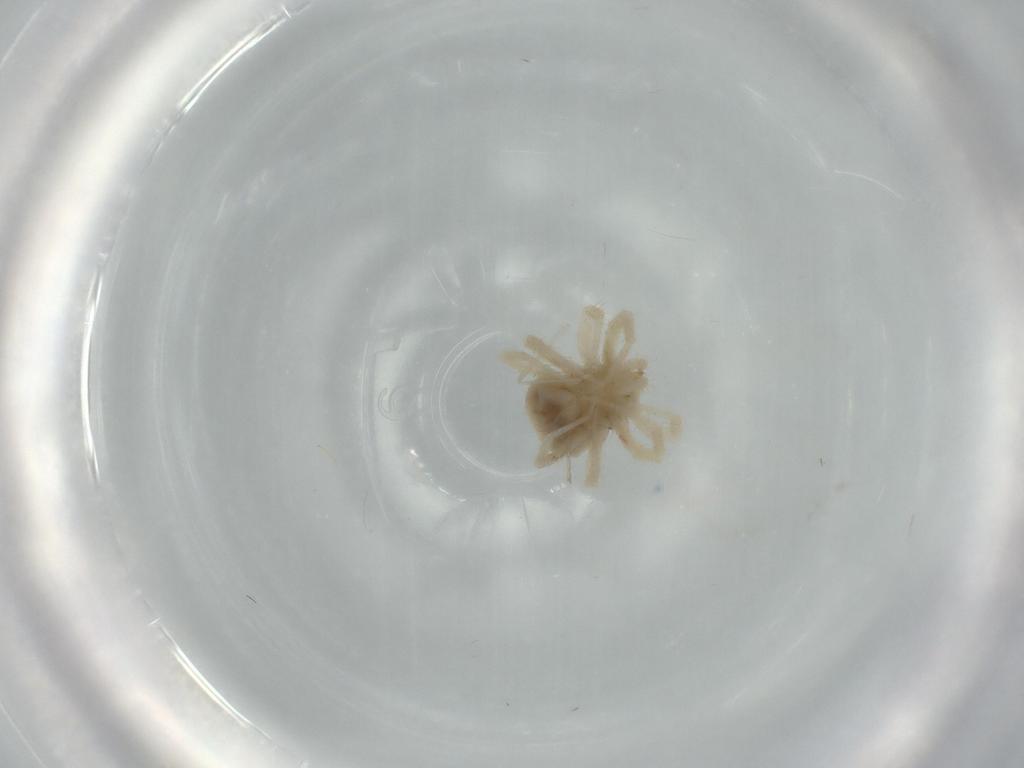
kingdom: Animalia
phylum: Arthropoda
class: Arachnida
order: Trombidiformes
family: Anystidae
